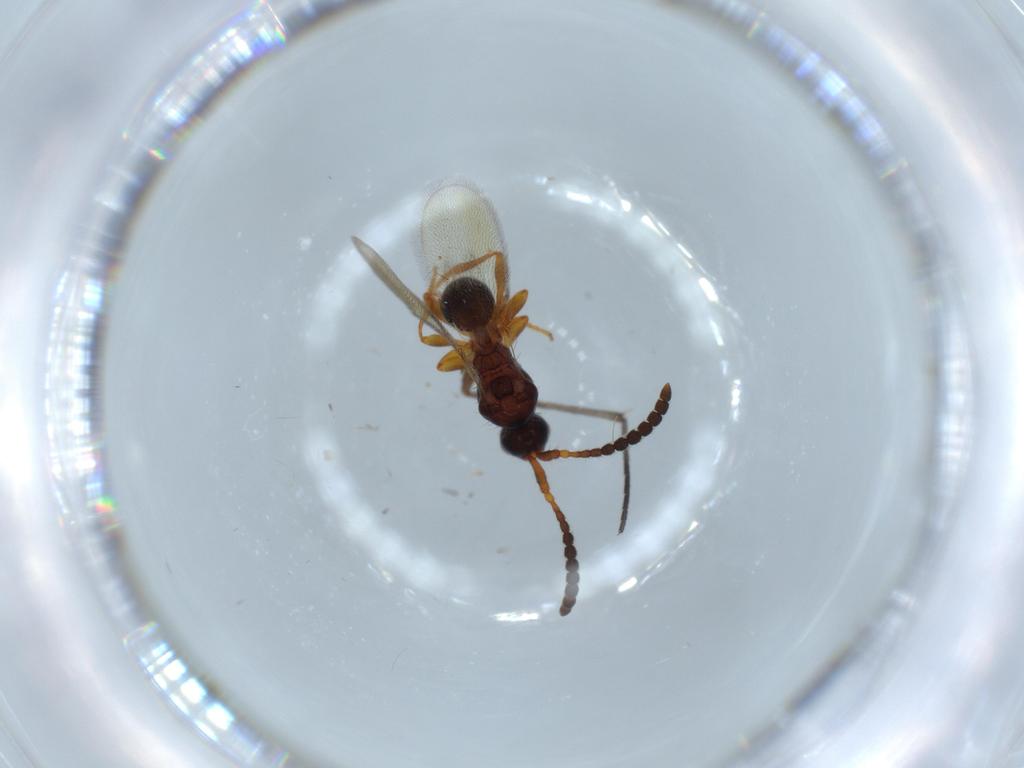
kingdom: Animalia
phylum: Arthropoda
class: Insecta
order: Hymenoptera
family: Diapriidae
